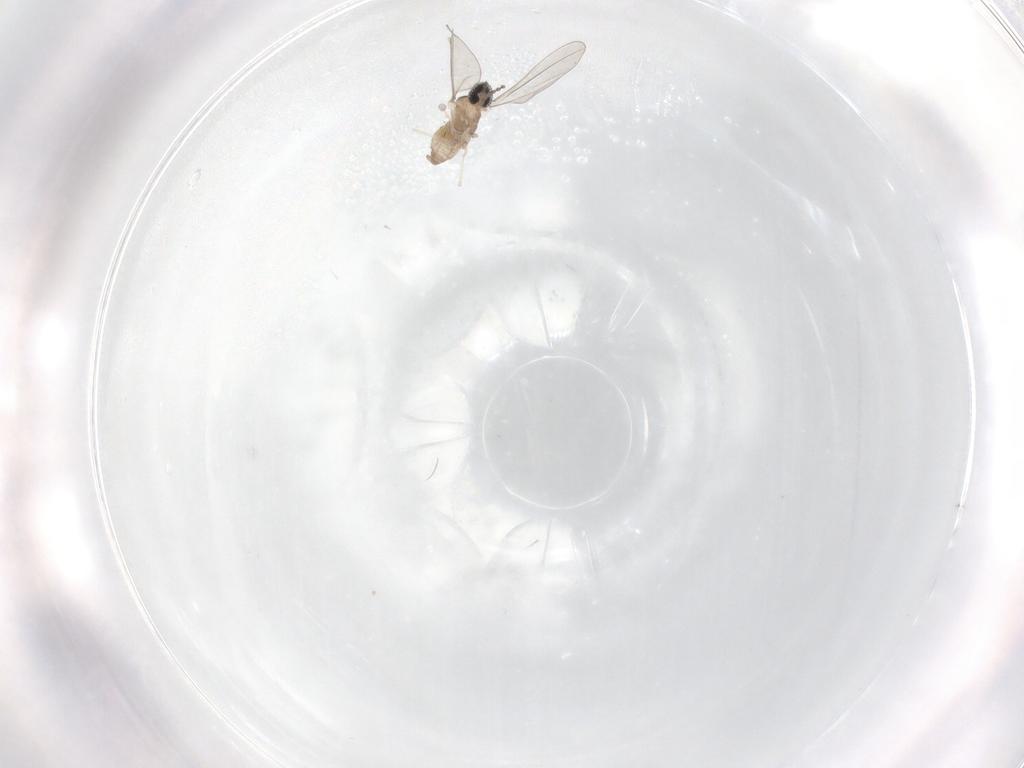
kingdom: Animalia
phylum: Arthropoda
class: Insecta
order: Diptera
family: Cecidomyiidae
